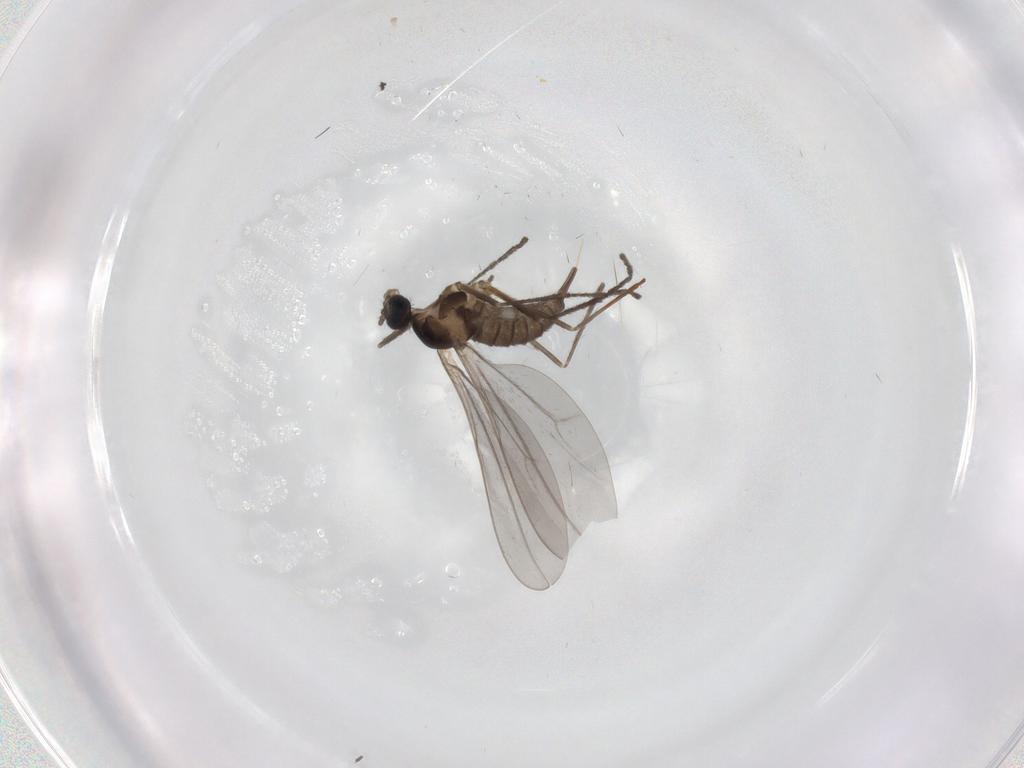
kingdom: Animalia
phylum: Arthropoda
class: Insecta
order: Diptera
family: Cecidomyiidae
